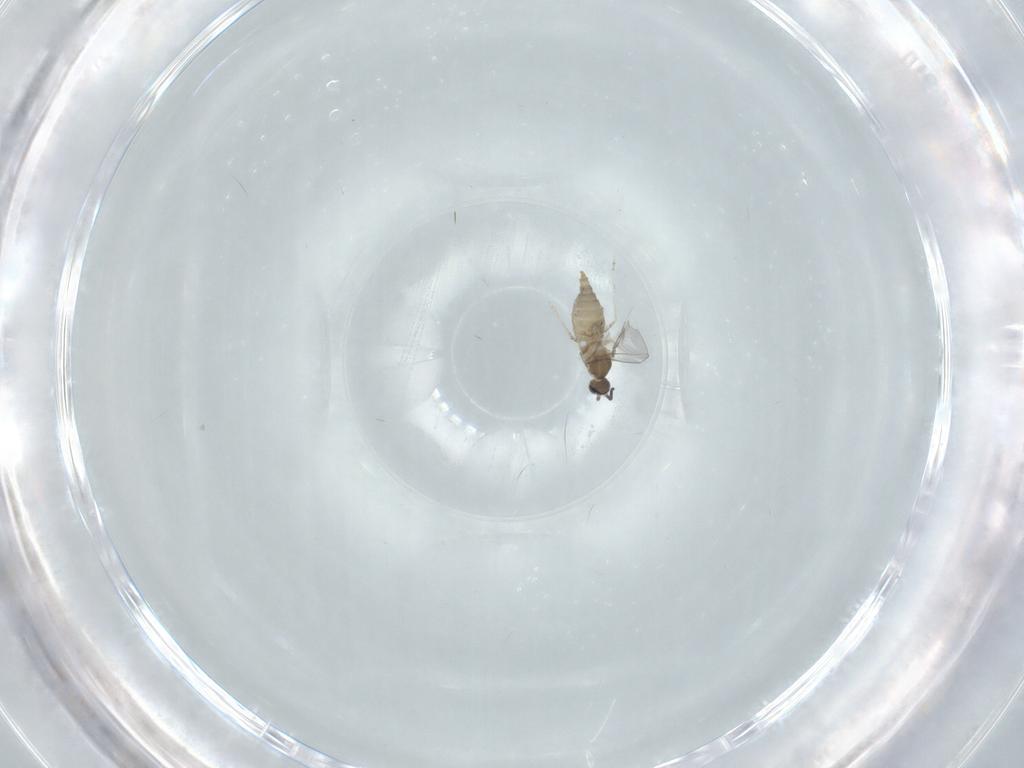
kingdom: Animalia
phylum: Arthropoda
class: Insecta
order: Diptera
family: Cecidomyiidae
